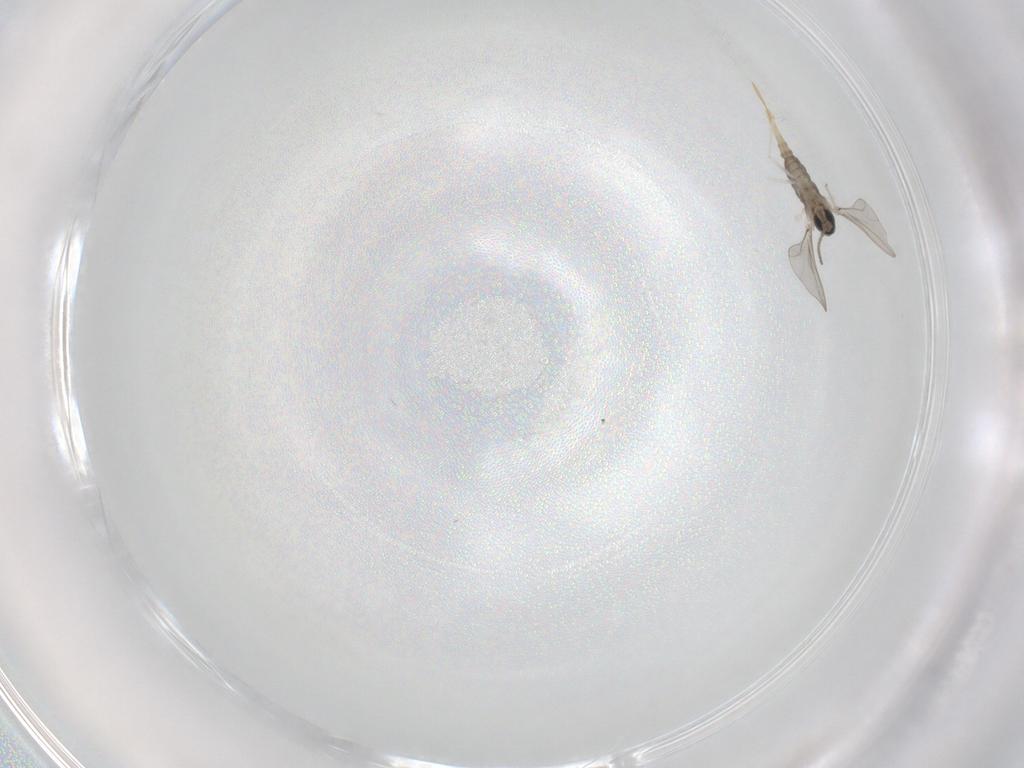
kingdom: Animalia
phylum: Arthropoda
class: Insecta
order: Diptera
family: Cecidomyiidae
